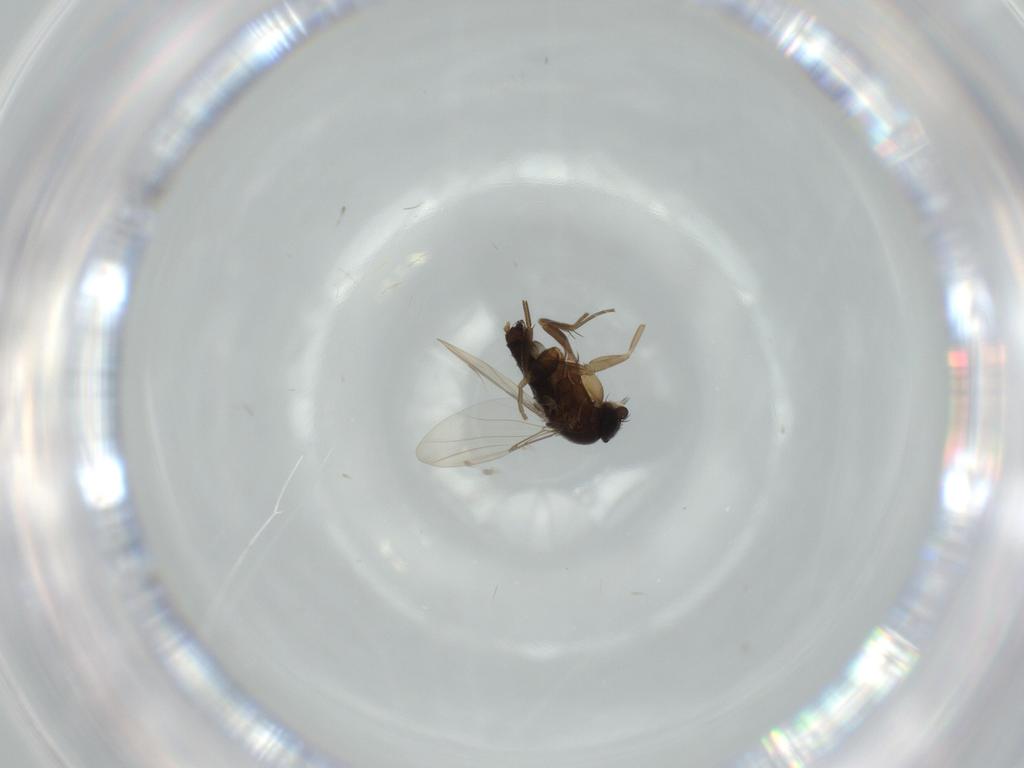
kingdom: Animalia
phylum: Arthropoda
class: Insecta
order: Diptera
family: Phoridae
